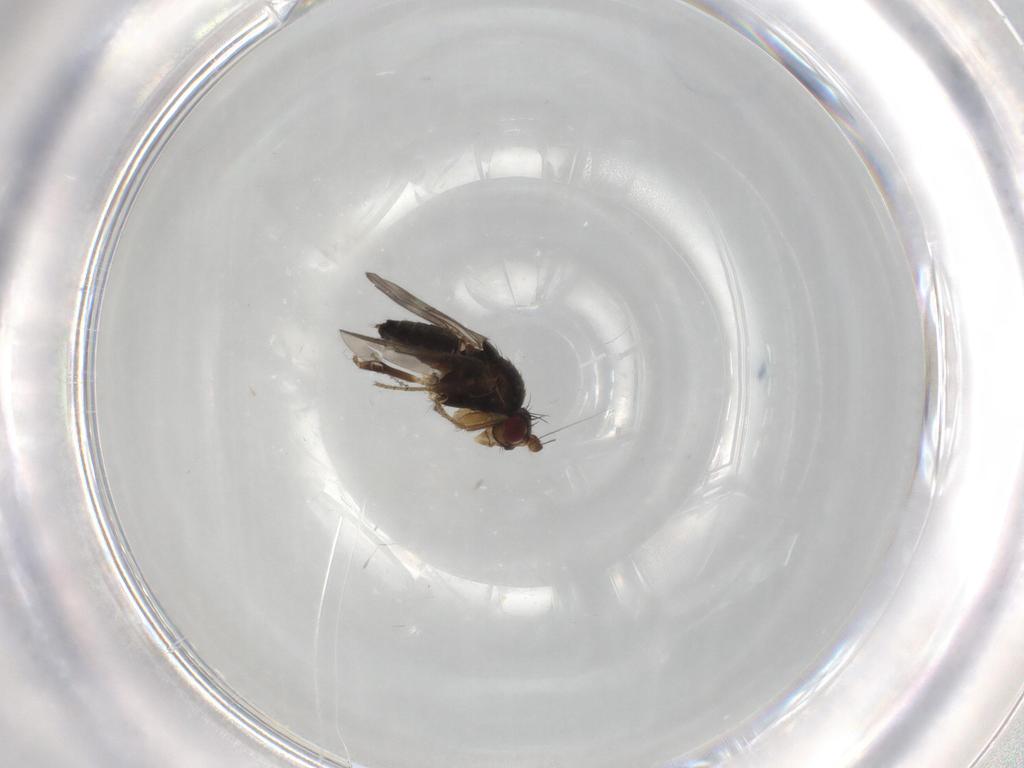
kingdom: Animalia
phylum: Arthropoda
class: Insecta
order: Diptera
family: Sphaeroceridae
